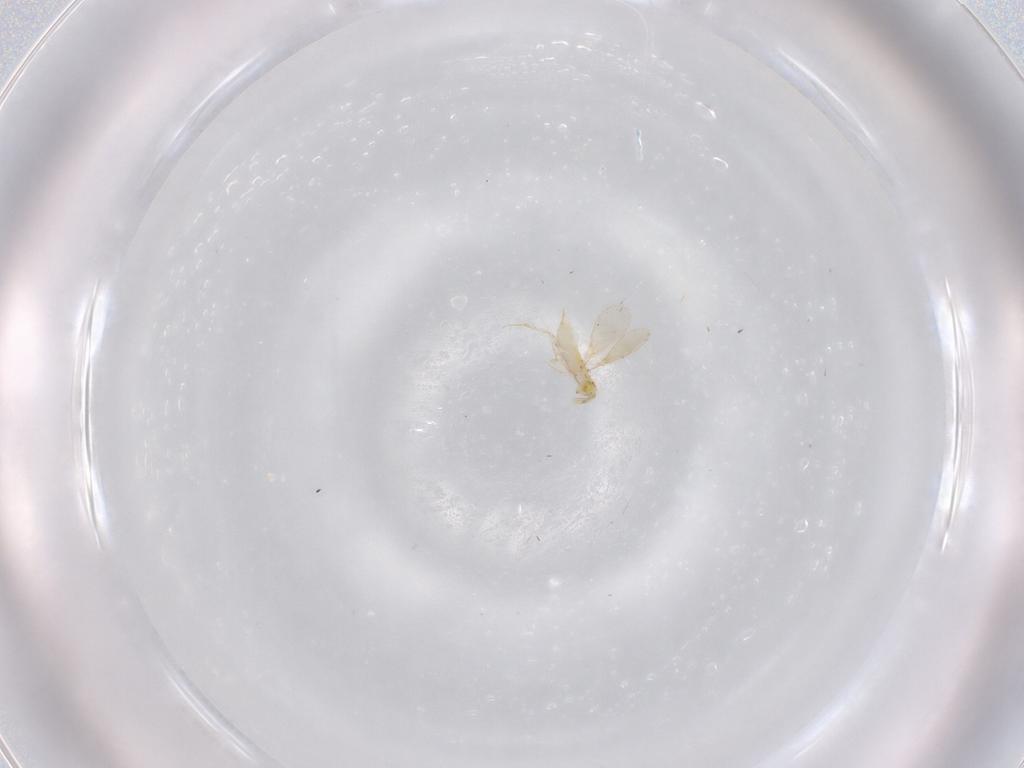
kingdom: Animalia
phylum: Arthropoda
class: Insecta
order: Hymenoptera
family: Aphelinidae
